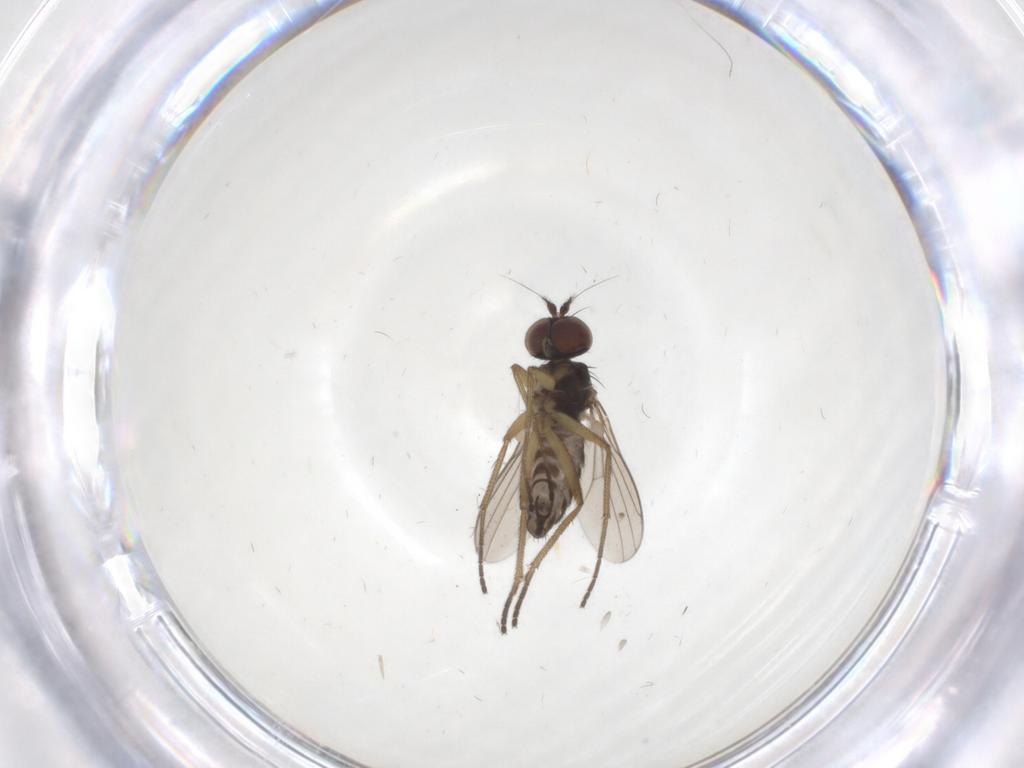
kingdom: Animalia
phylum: Arthropoda
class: Insecta
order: Diptera
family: Dolichopodidae
